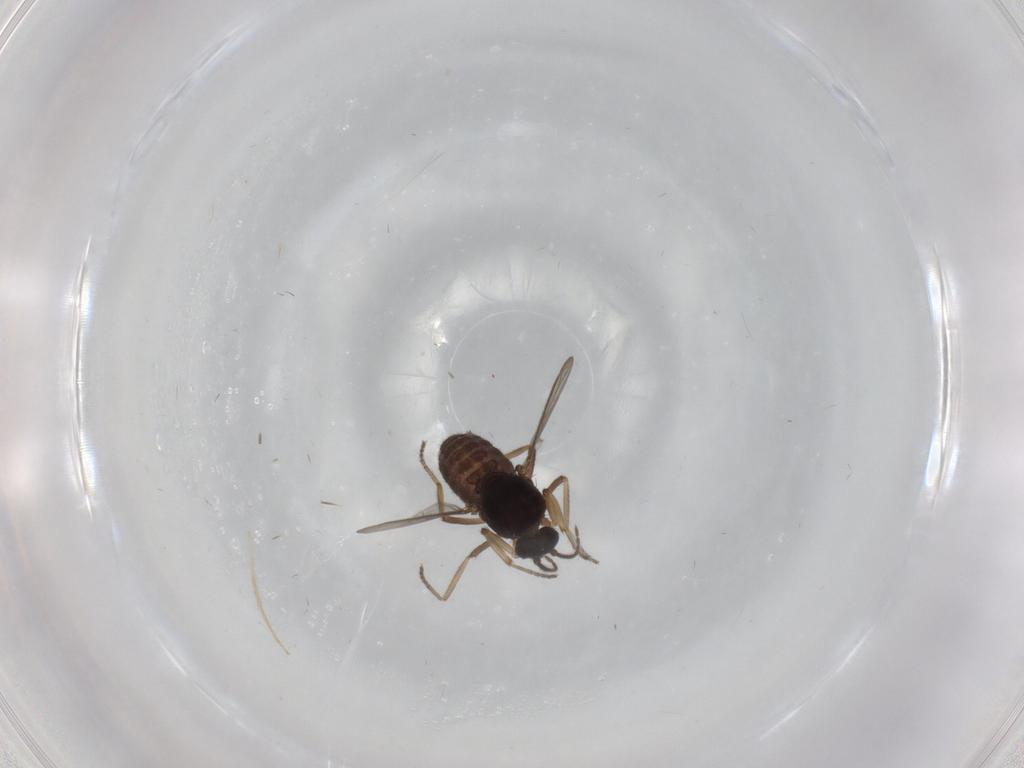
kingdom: Animalia
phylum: Arthropoda
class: Insecta
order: Diptera
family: Ceratopogonidae
